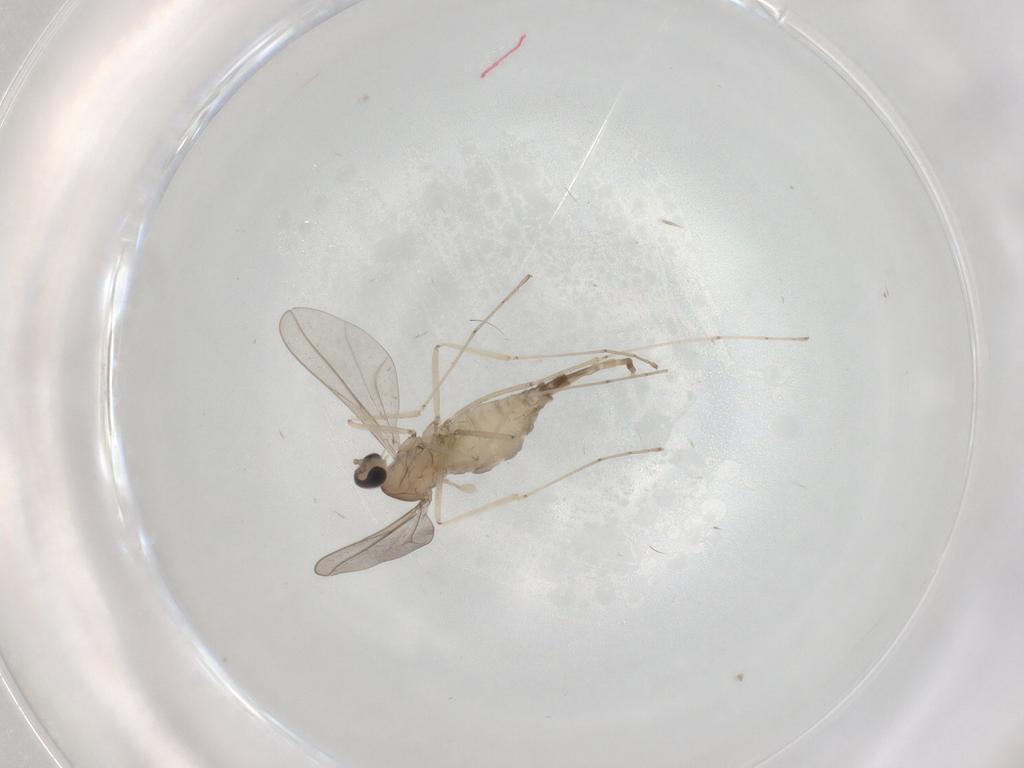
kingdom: Animalia
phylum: Arthropoda
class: Insecta
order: Diptera
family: Cecidomyiidae
